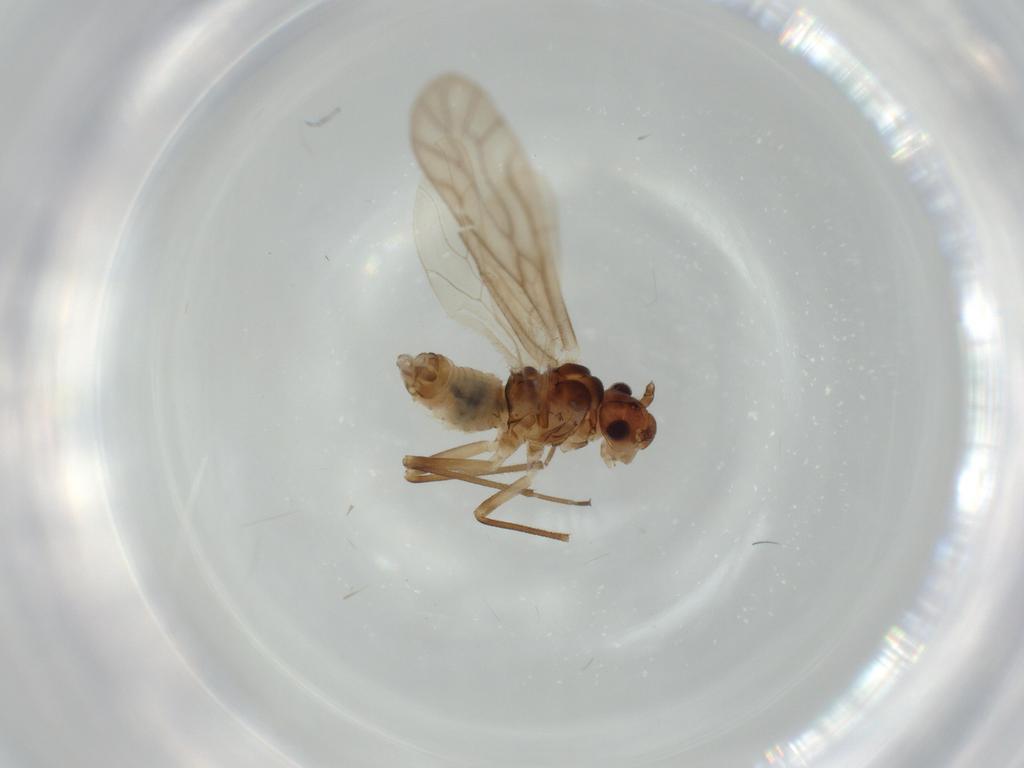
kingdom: Animalia
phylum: Arthropoda
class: Insecta
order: Psocodea
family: Caeciliusidae
